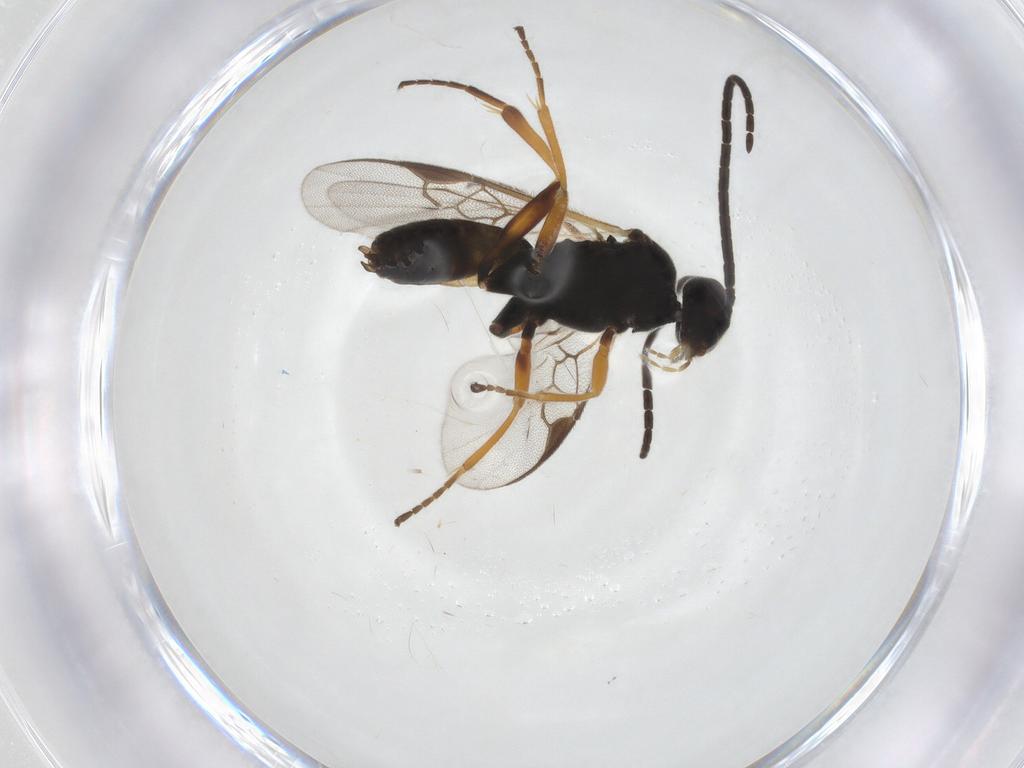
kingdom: Animalia
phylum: Arthropoda
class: Insecta
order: Hymenoptera
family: Braconidae
